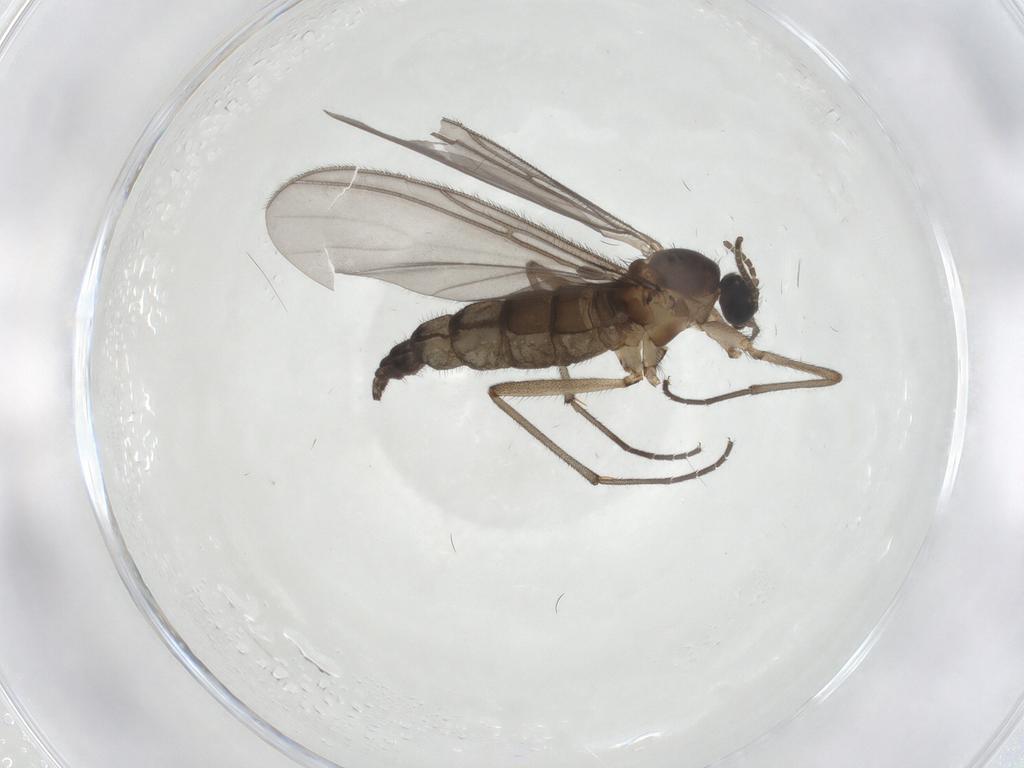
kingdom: Animalia
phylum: Arthropoda
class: Insecta
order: Diptera
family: Chironomidae
